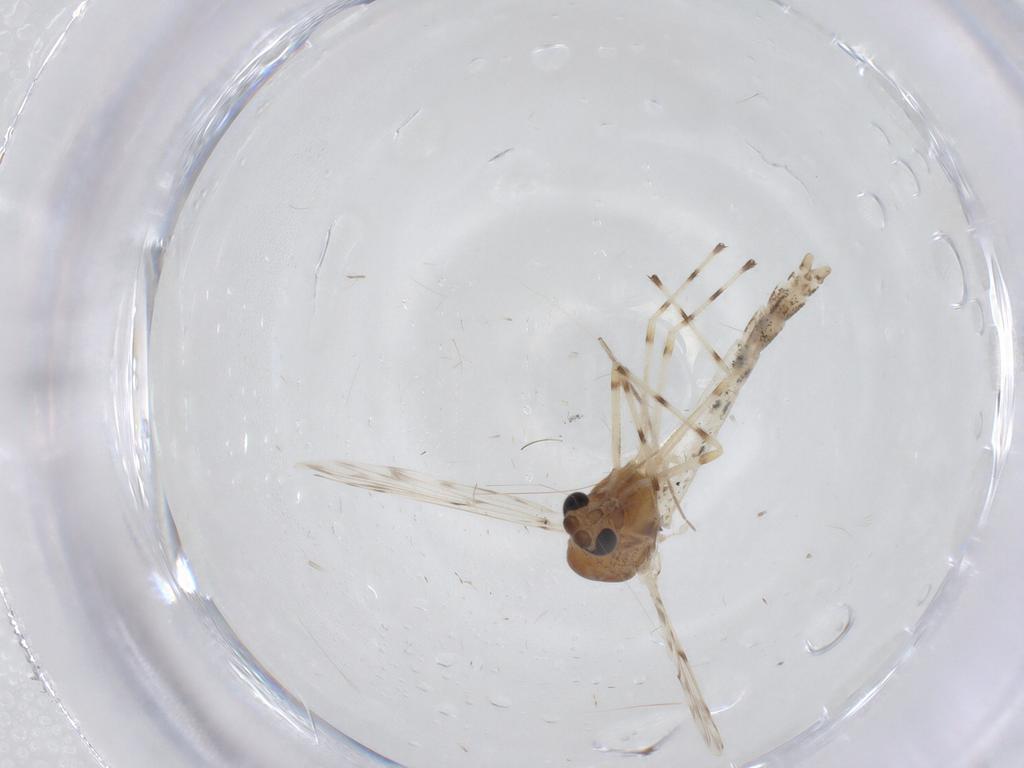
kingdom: Animalia
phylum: Arthropoda
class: Insecta
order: Diptera
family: Chironomidae
